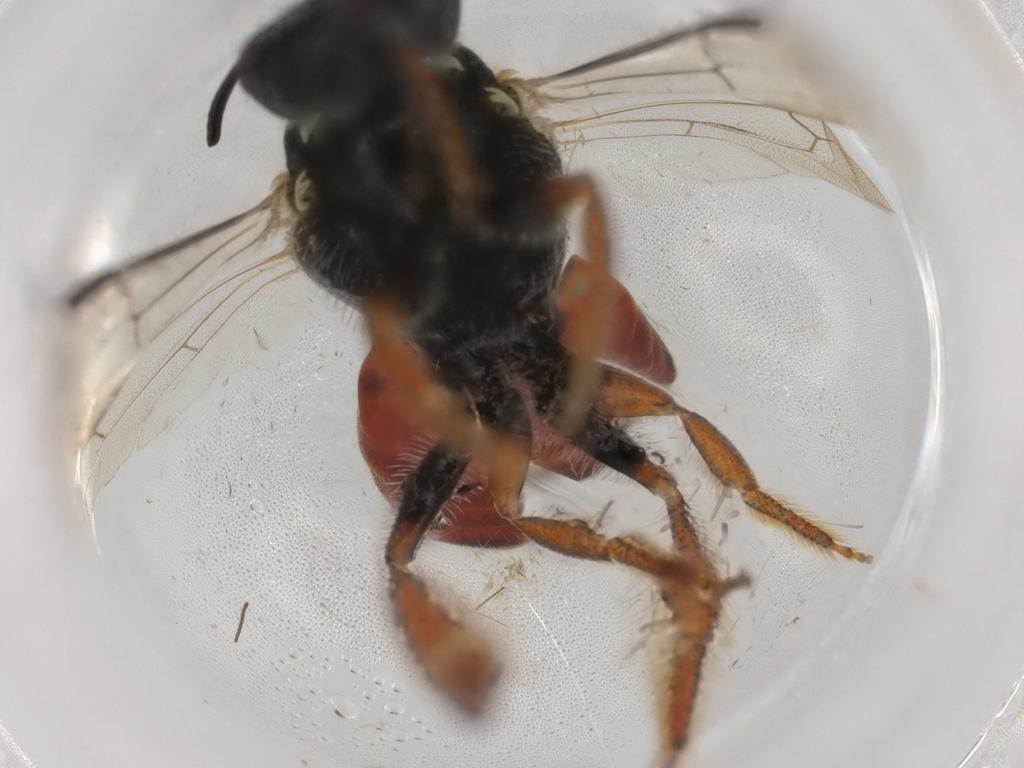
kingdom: Animalia
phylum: Arthropoda
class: Insecta
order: Hymenoptera
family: Apidae
